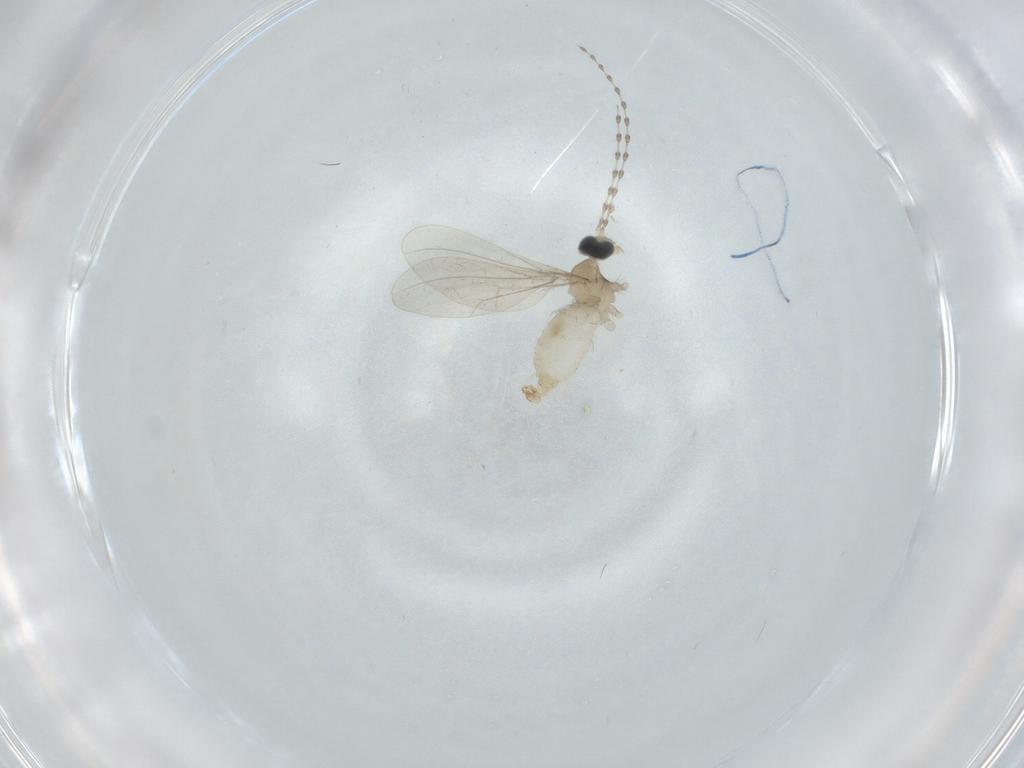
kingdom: Animalia
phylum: Arthropoda
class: Insecta
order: Diptera
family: Cecidomyiidae
